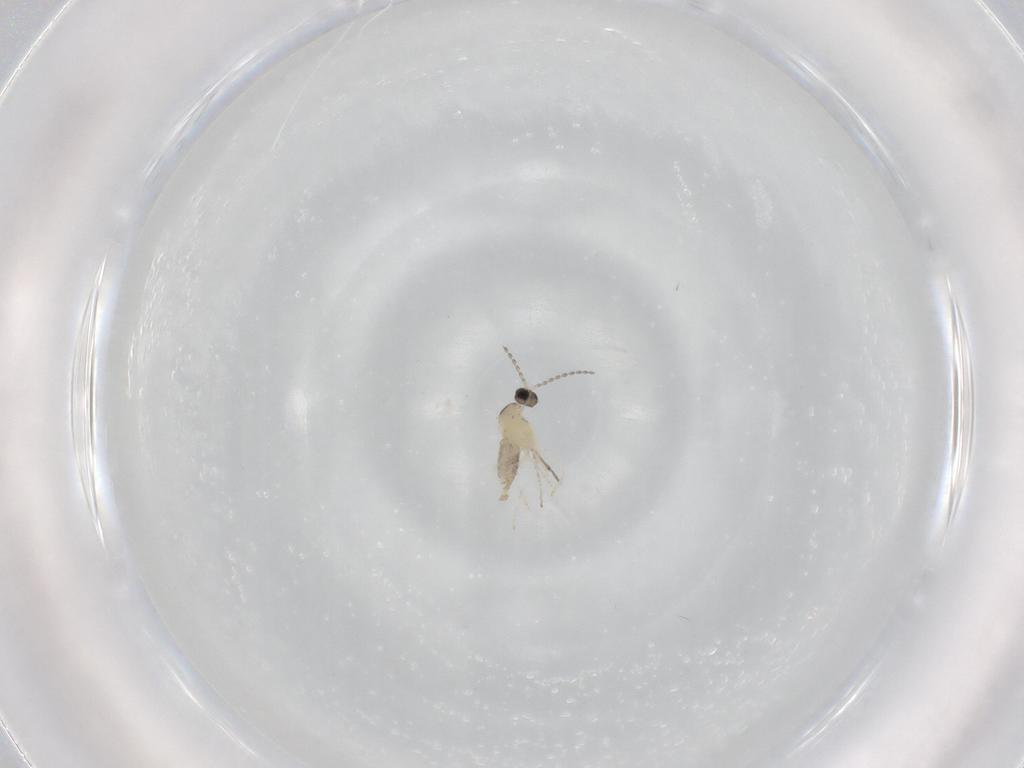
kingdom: Animalia
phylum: Arthropoda
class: Insecta
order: Diptera
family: Cecidomyiidae
